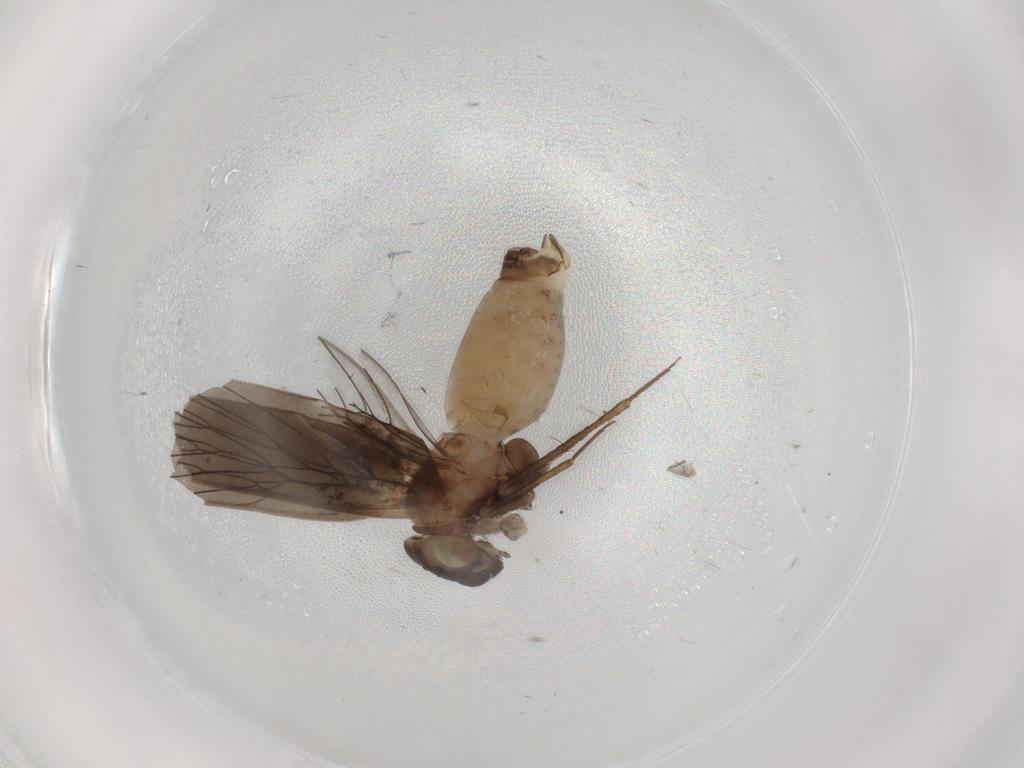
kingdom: Animalia
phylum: Arthropoda
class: Insecta
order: Psocodea
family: Lepidopsocidae
